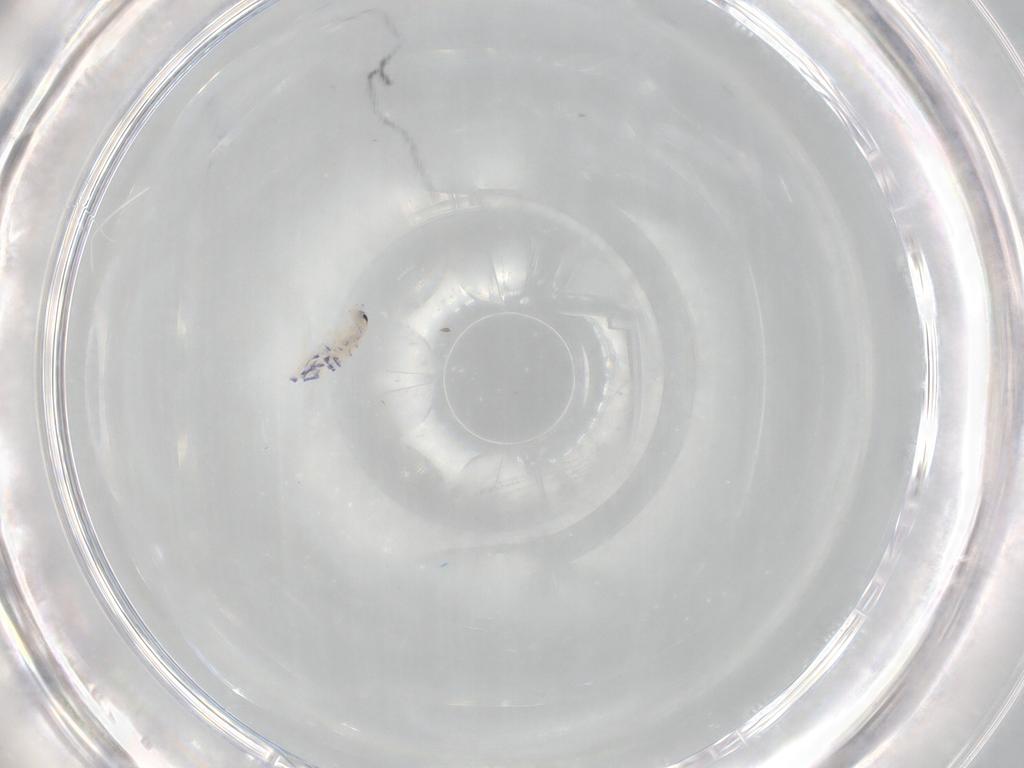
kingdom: Animalia
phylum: Arthropoda
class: Collembola
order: Entomobryomorpha
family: Entomobryidae
